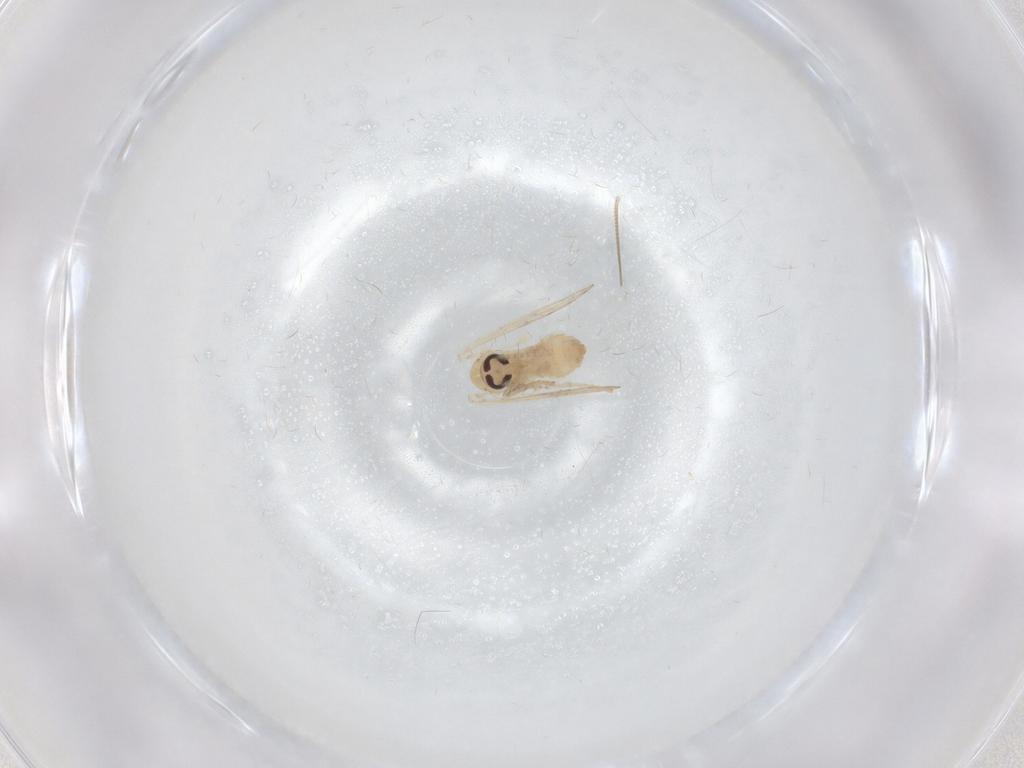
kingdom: Animalia
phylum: Arthropoda
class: Insecta
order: Diptera
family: Psychodidae
